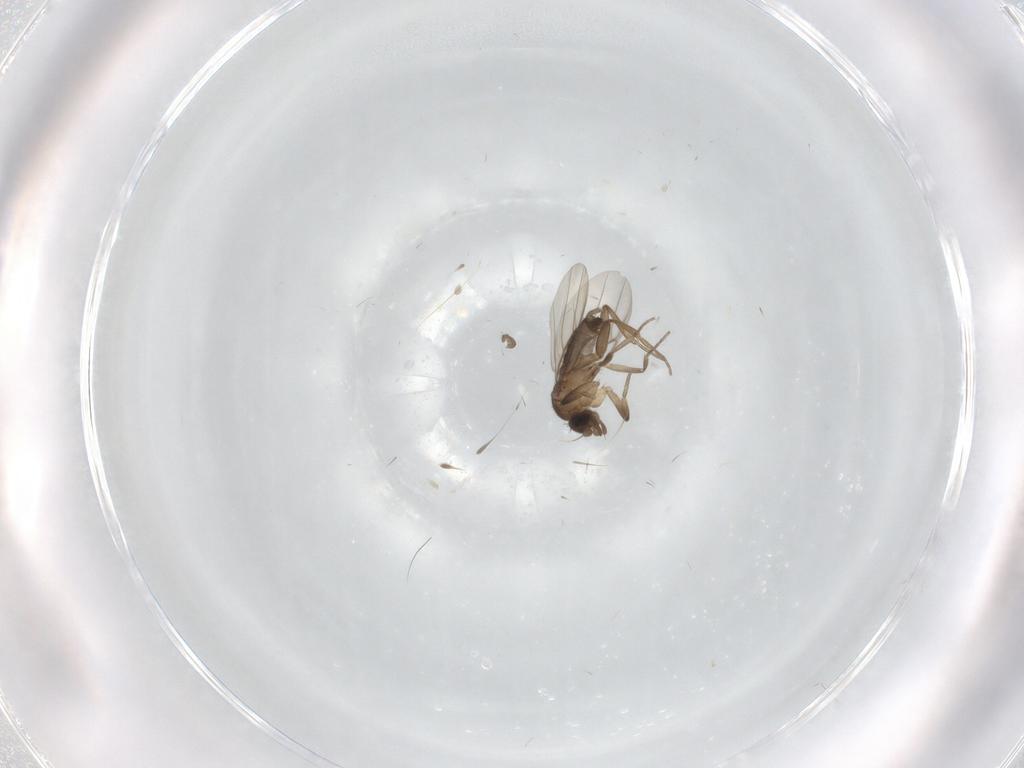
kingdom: Animalia
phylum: Arthropoda
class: Insecta
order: Diptera
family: Phoridae
